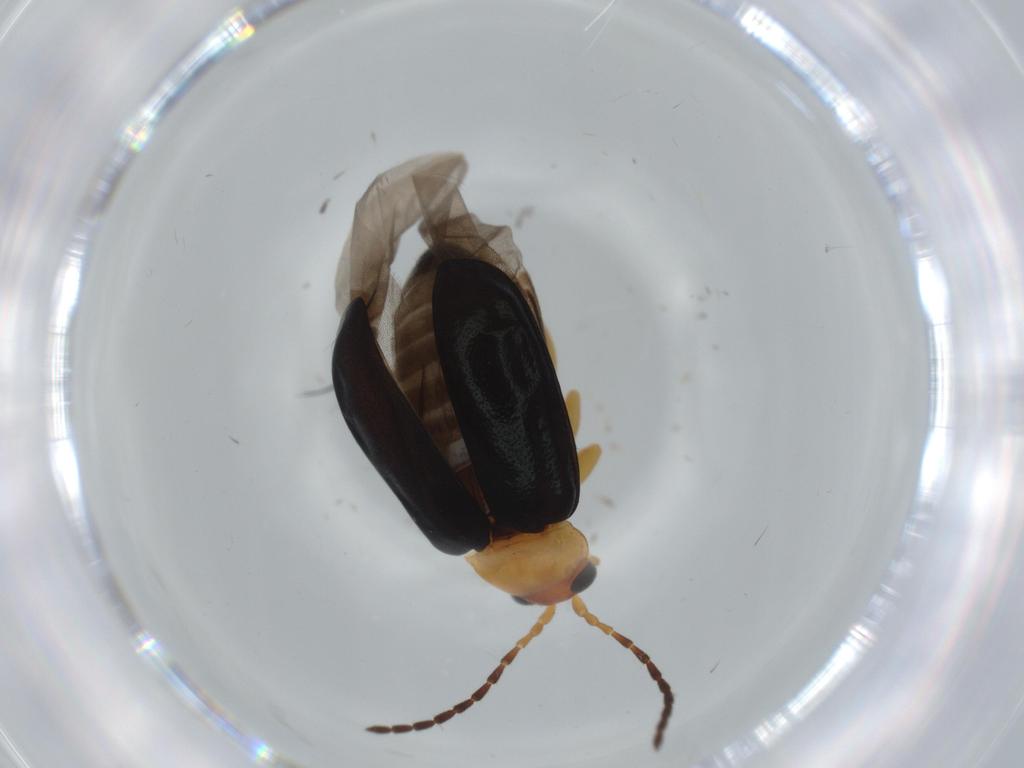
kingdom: Animalia
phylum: Arthropoda
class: Insecta
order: Coleoptera
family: Chrysomelidae
